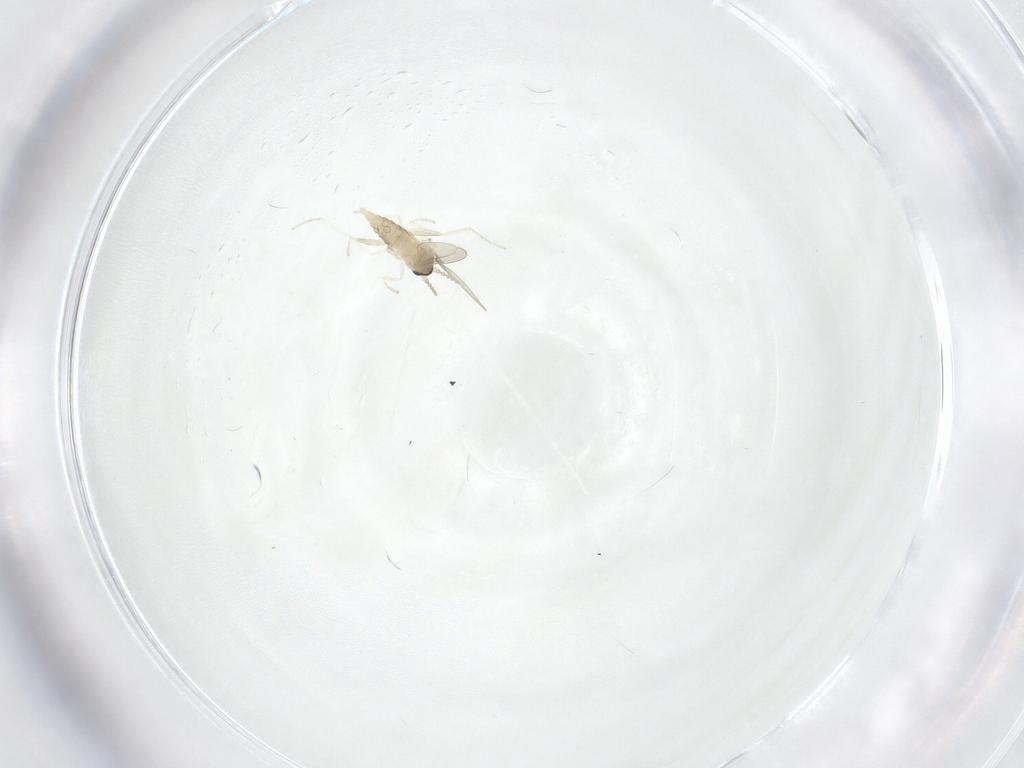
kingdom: Animalia
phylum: Arthropoda
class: Insecta
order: Diptera
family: Cecidomyiidae
